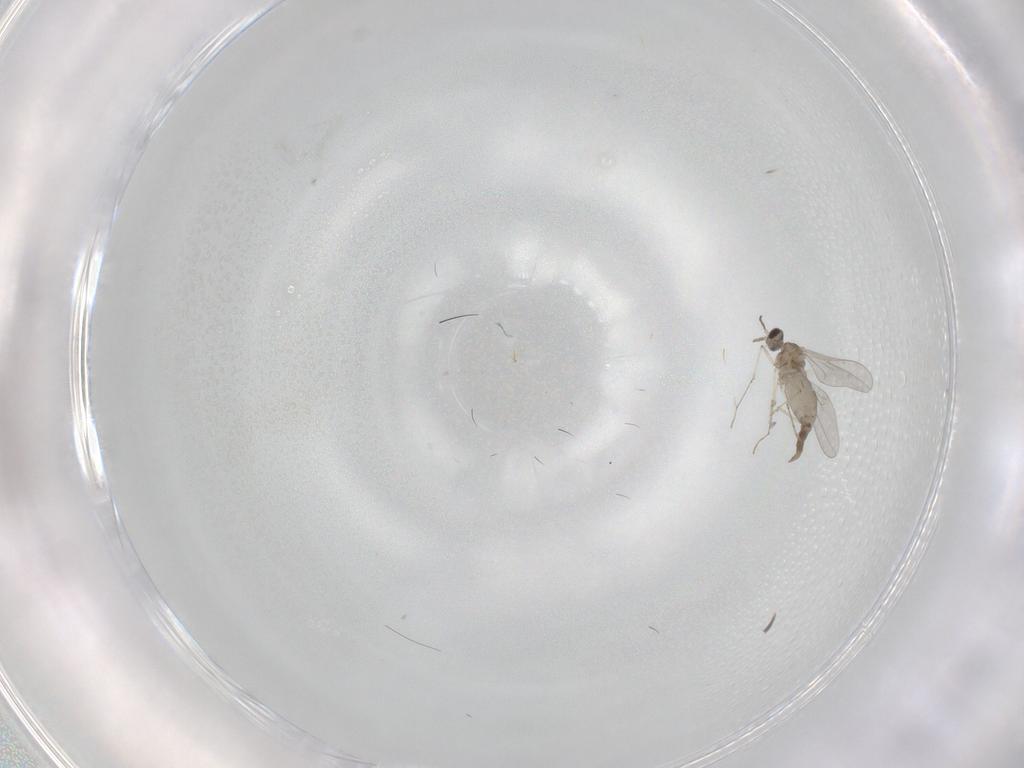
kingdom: Animalia
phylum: Arthropoda
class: Insecta
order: Diptera
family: Cecidomyiidae
